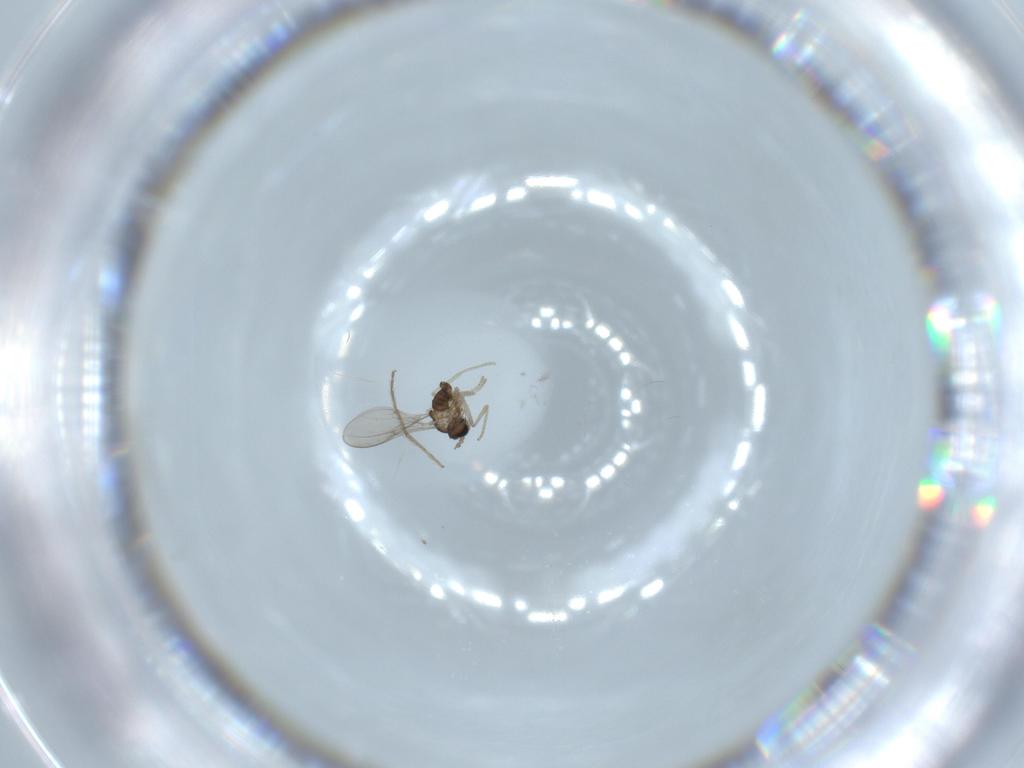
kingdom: Animalia
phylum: Arthropoda
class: Insecta
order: Diptera
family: Cecidomyiidae
